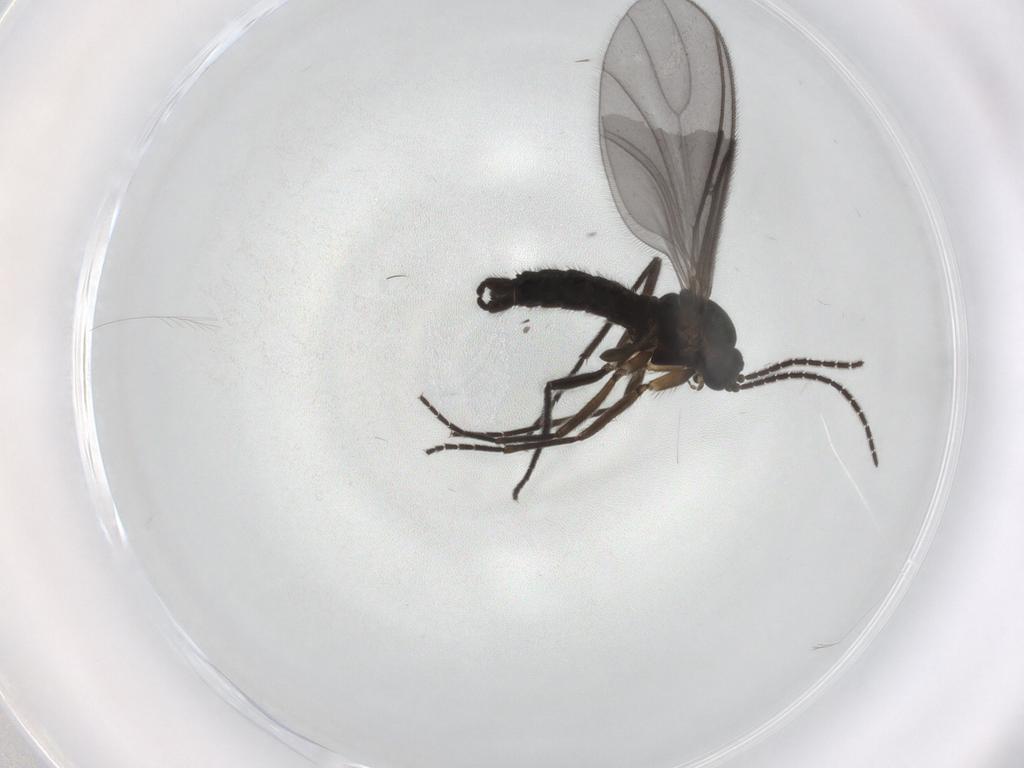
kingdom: Animalia
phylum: Arthropoda
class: Insecta
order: Diptera
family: Sciaridae
